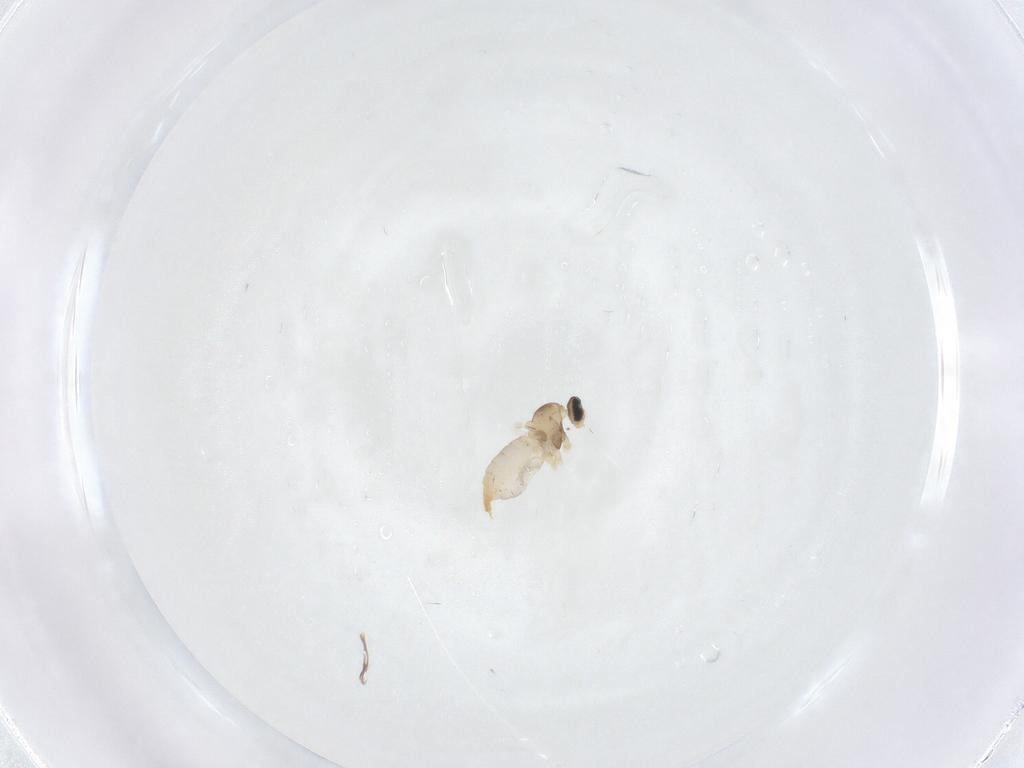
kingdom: Animalia
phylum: Arthropoda
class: Insecta
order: Diptera
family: Cecidomyiidae
